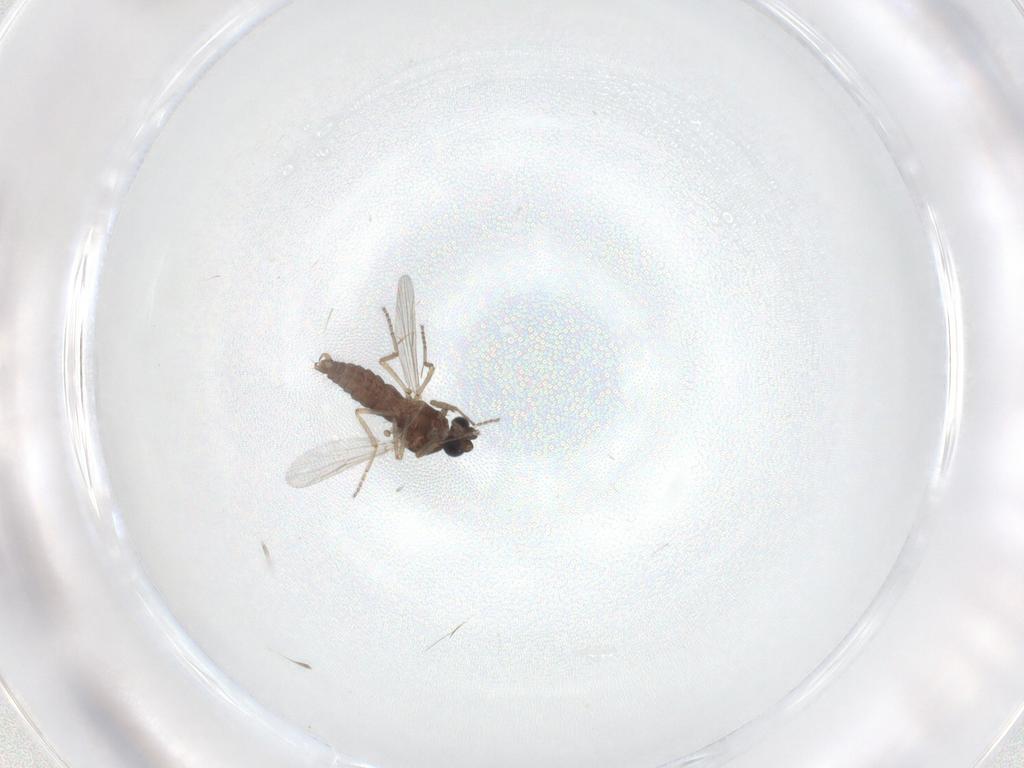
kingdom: Animalia
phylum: Arthropoda
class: Insecta
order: Diptera
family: Ceratopogonidae
